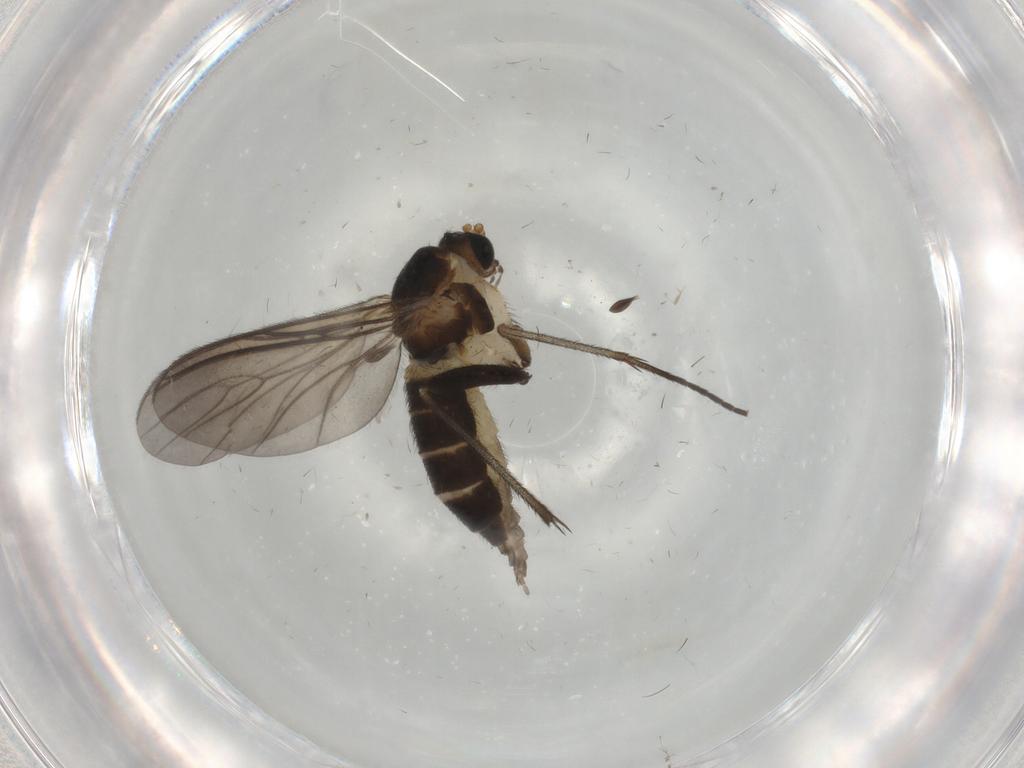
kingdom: Animalia
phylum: Arthropoda
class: Insecta
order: Diptera
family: Sciaridae
